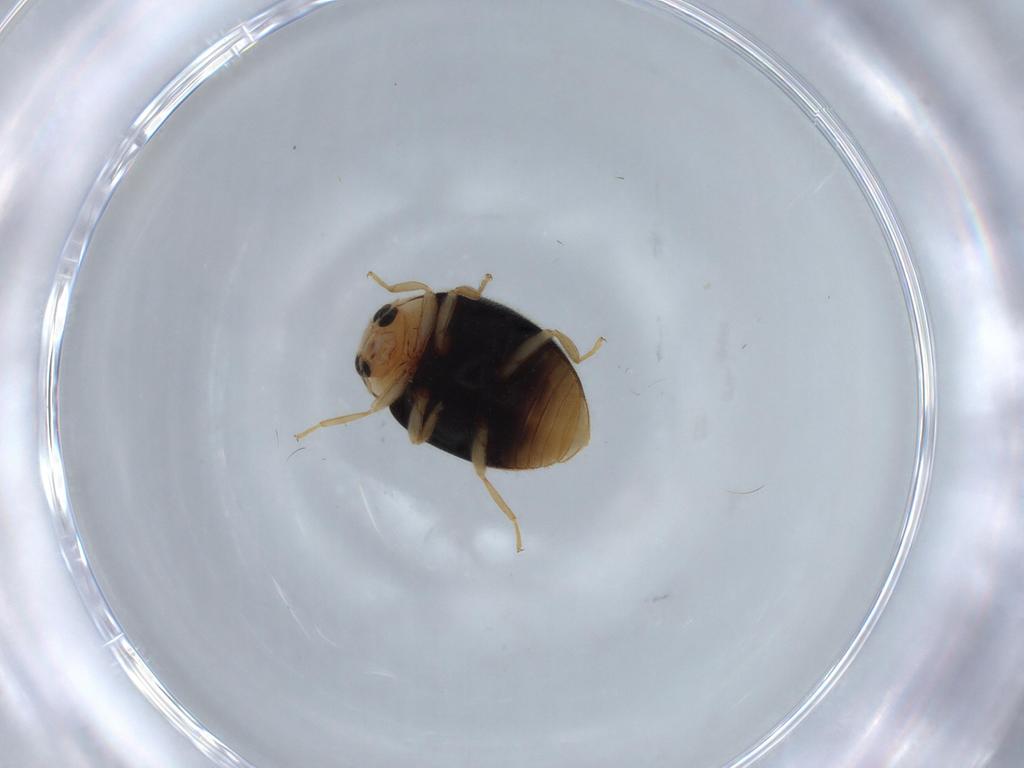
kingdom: Animalia
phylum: Arthropoda
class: Insecta
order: Coleoptera
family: Coccinellidae
